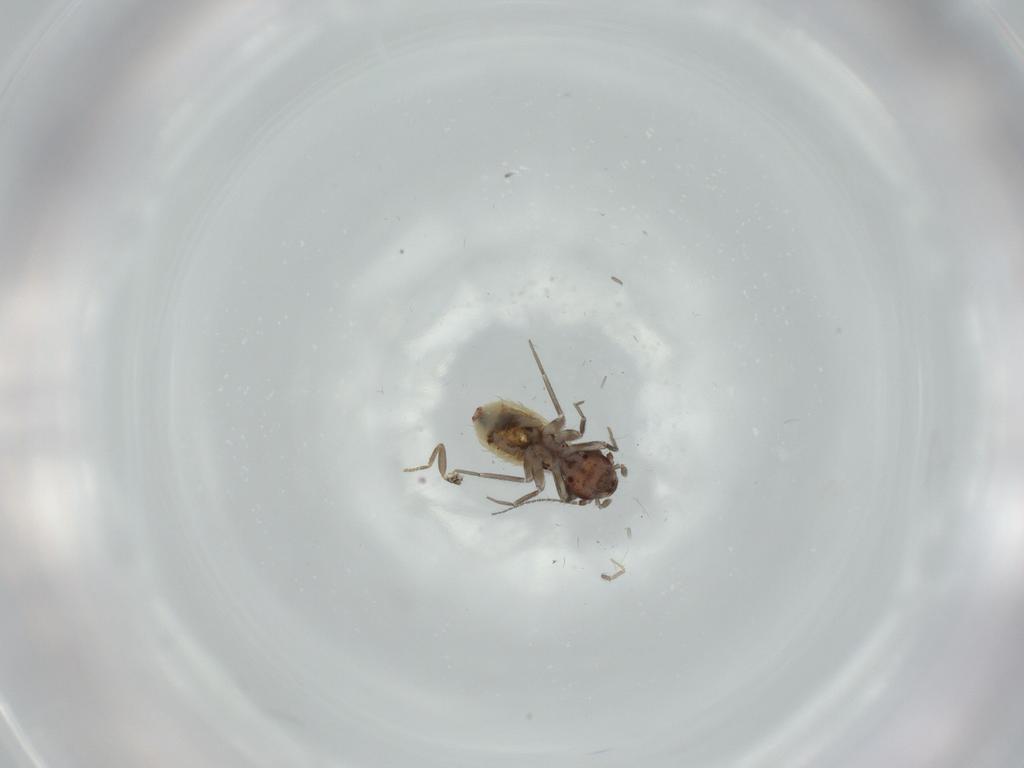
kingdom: Animalia
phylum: Arthropoda
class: Insecta
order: Psocodea
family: Lepidopsocidae
